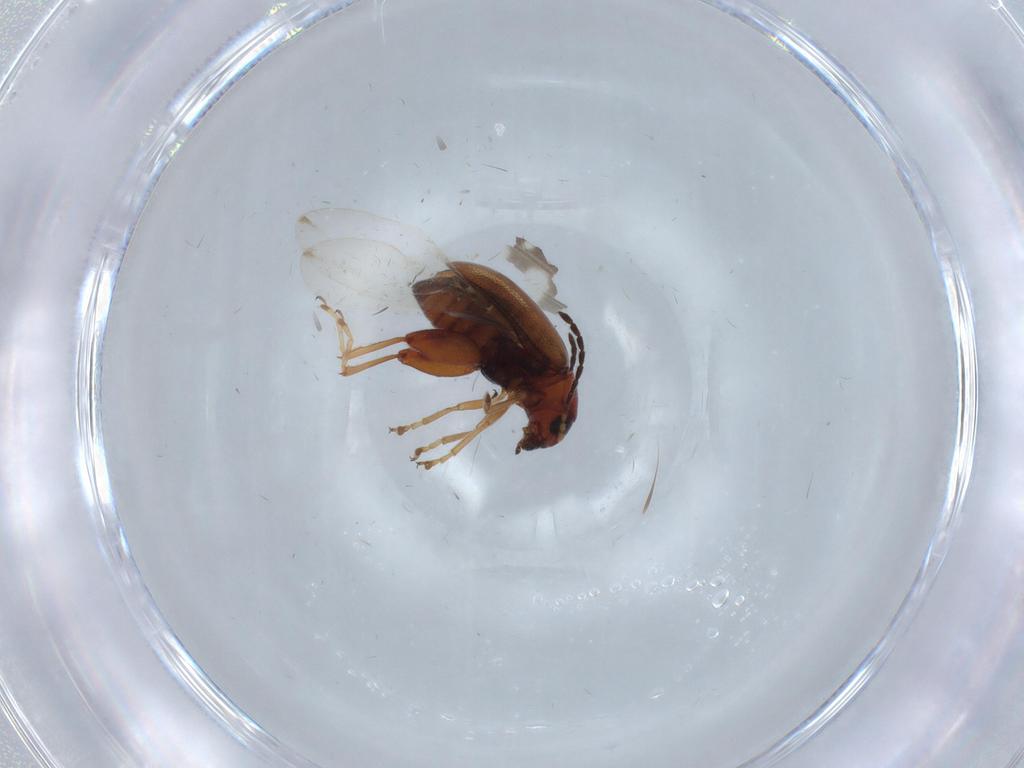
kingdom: Animalia
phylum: Arthropoda
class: Insecta
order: Coleoptera
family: Chrysomelidae
